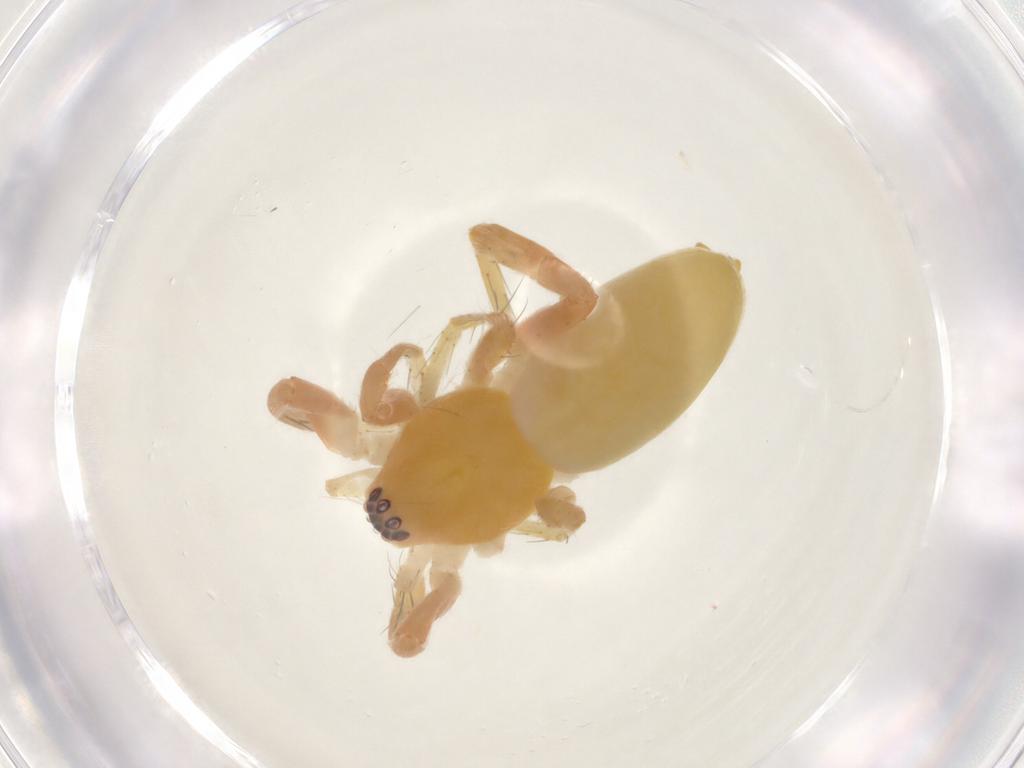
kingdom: Animalia
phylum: Arthropoda
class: Arachnida
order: Araneae
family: Anyphaenidae
